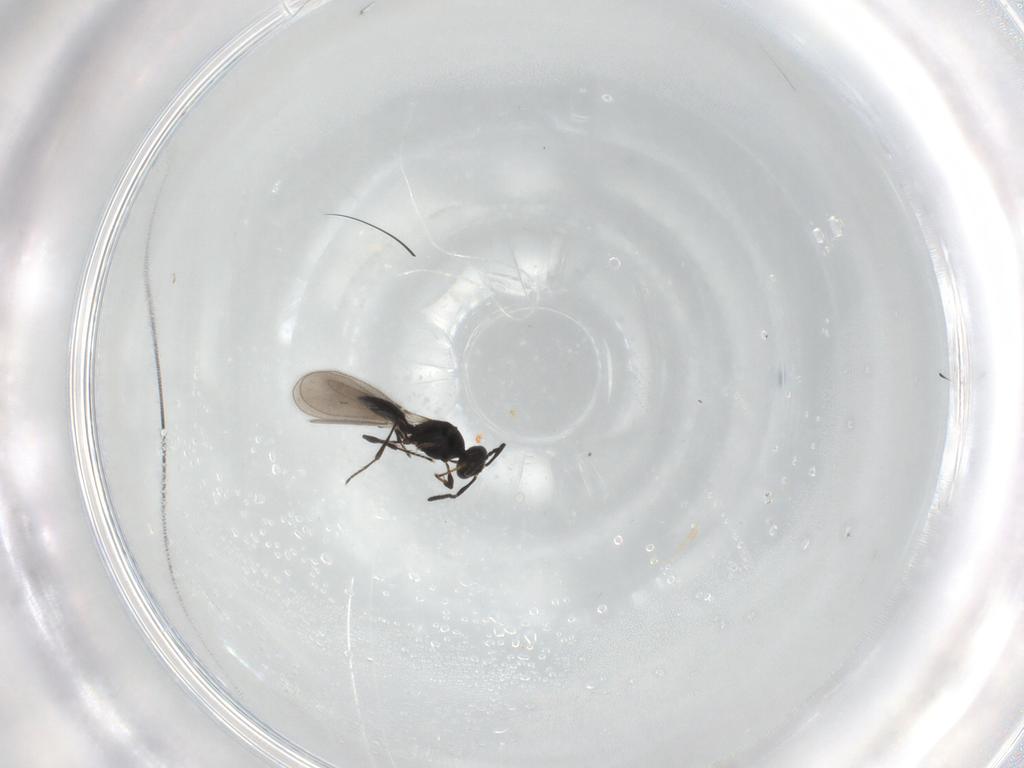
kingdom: Animalia
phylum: Arthropoda
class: Insecta
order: Hymenoptera
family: Platygastridae
